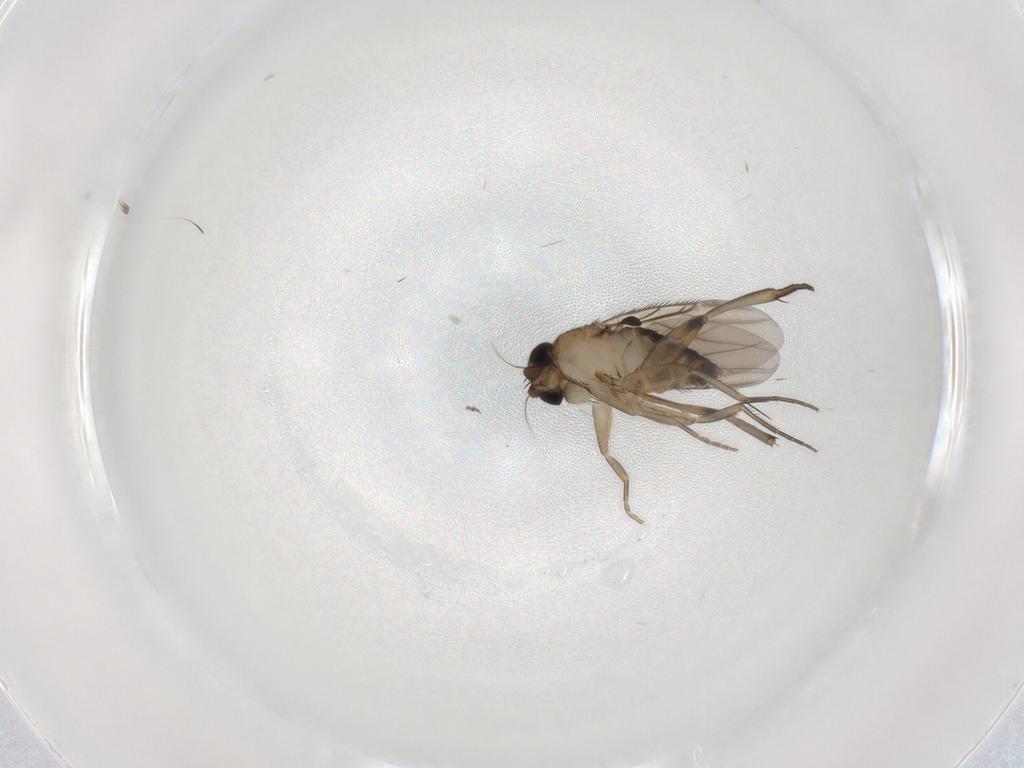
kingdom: Animalia
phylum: Arthropoda
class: Insecta
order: Diptera
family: Phoridae
